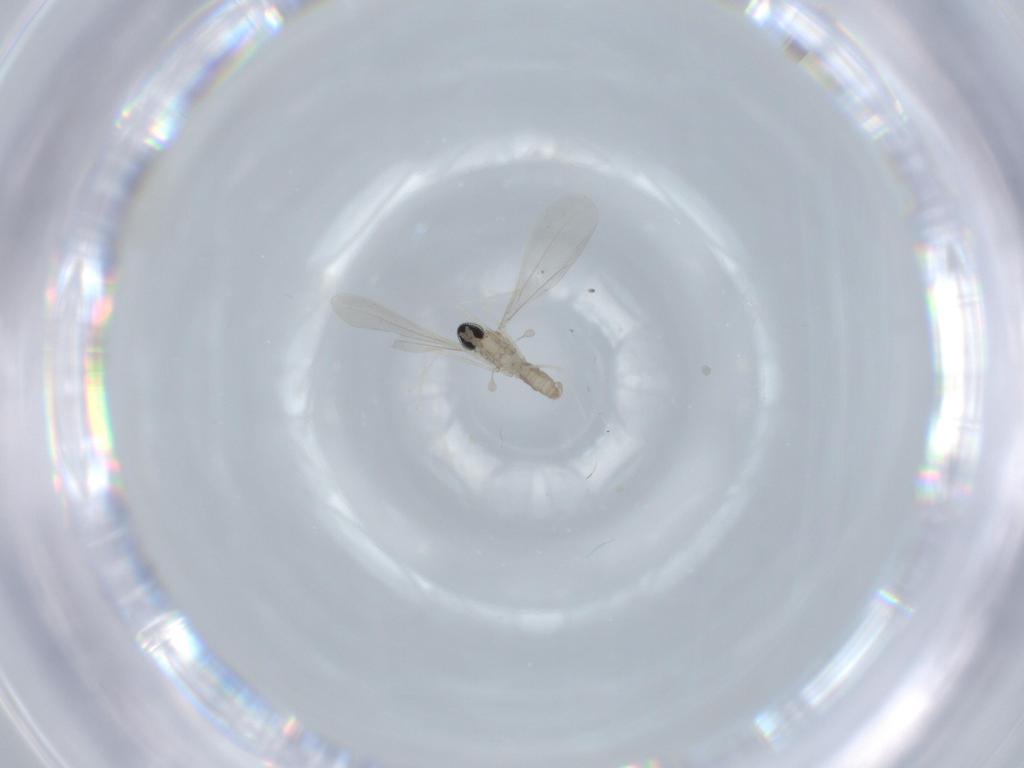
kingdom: Animalia
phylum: Arthropoda
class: Insecta
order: Diptera
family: Cecidomyiidae
